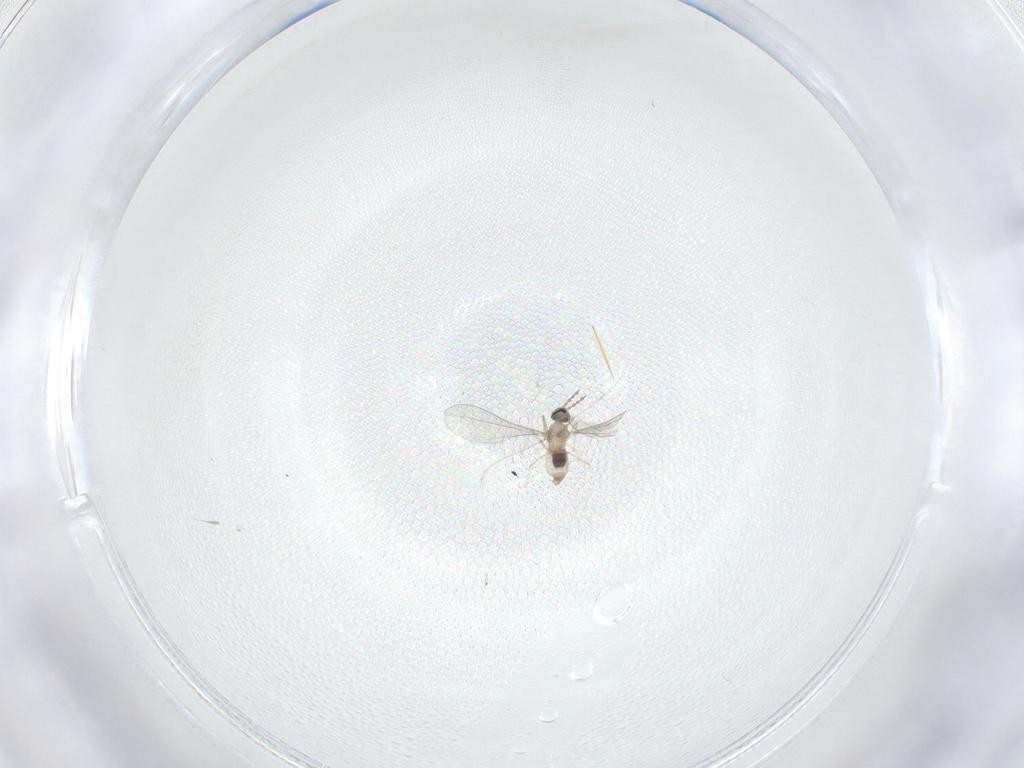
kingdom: Animalia
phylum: Arthropoda
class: Insecta
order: Diptera
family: Cecidomyiidae
